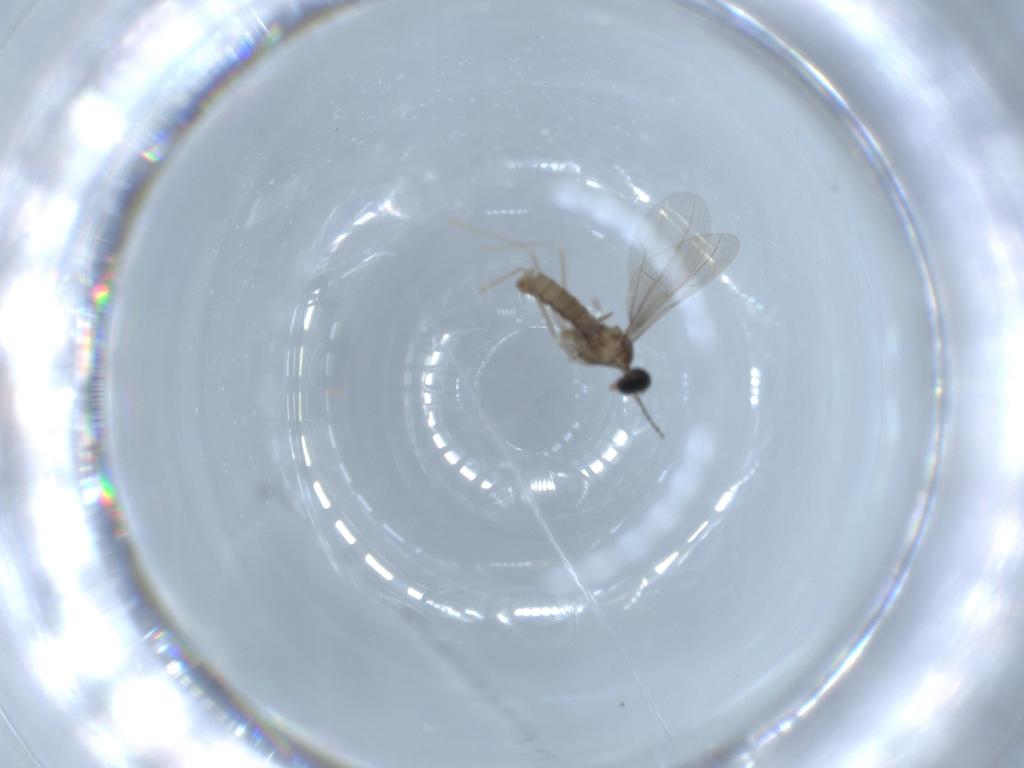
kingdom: Animalia
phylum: Arthropoda
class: Insecta
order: Diptera
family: Cecidomyiidae
